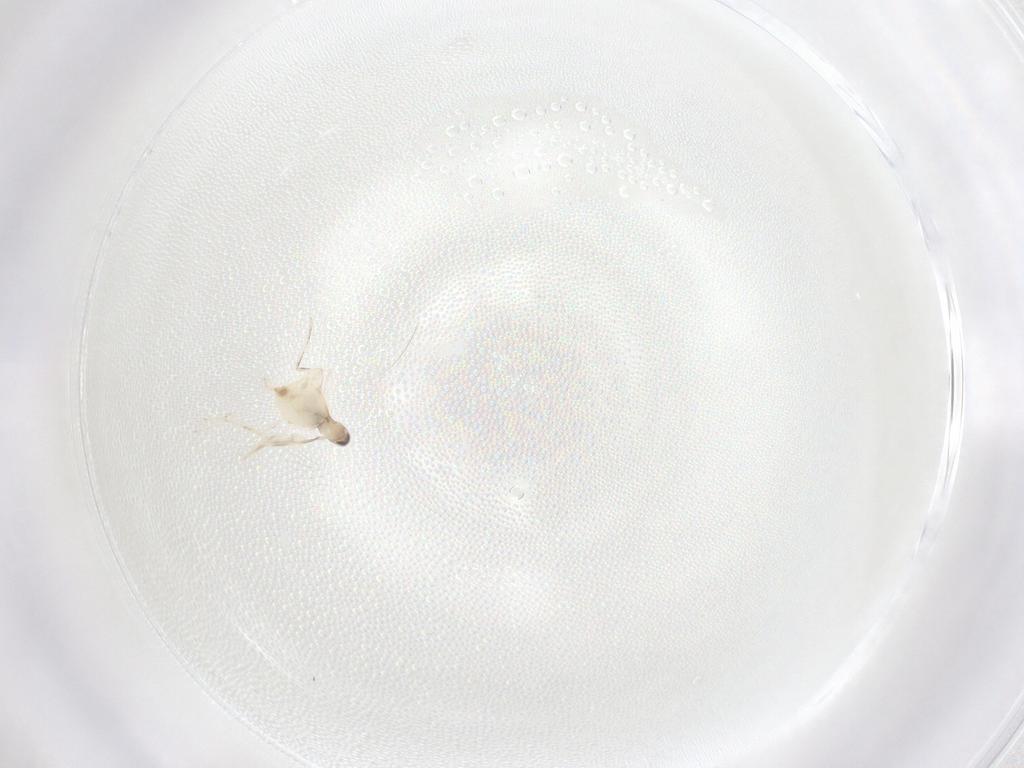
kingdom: Animalia
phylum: Arthropoda
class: Insecta
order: Diptera
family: Cecidomyiidae
